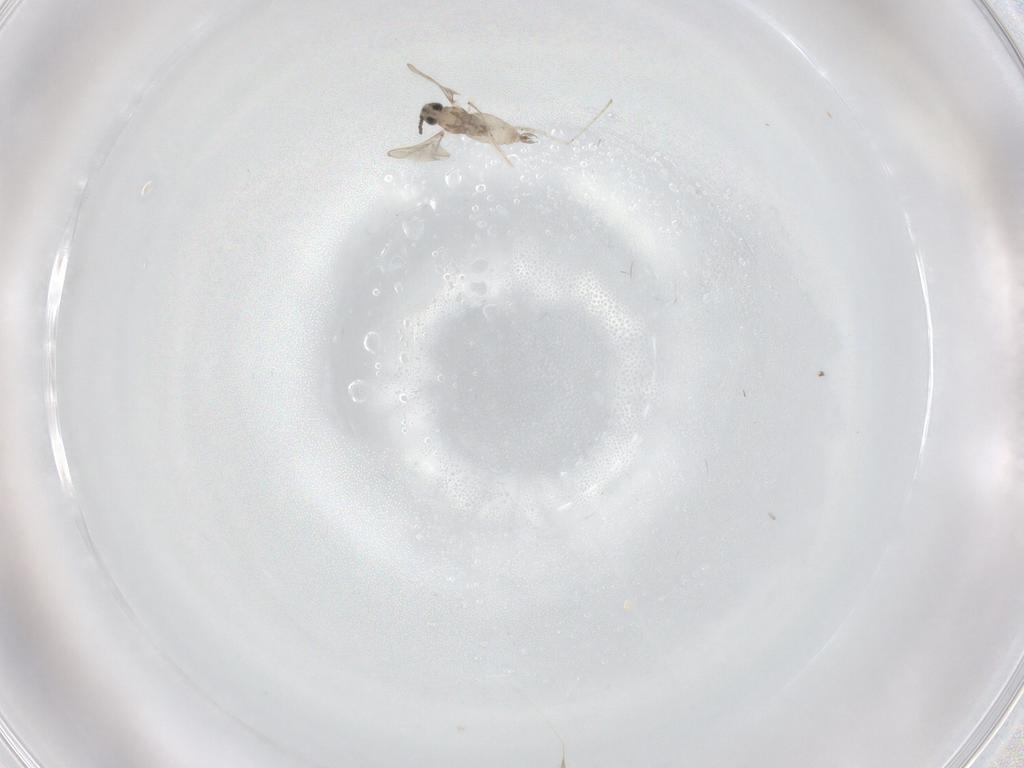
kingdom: Animalia
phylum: Arthropoda
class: Insecta
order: Diptera
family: Cecidomyiidae
